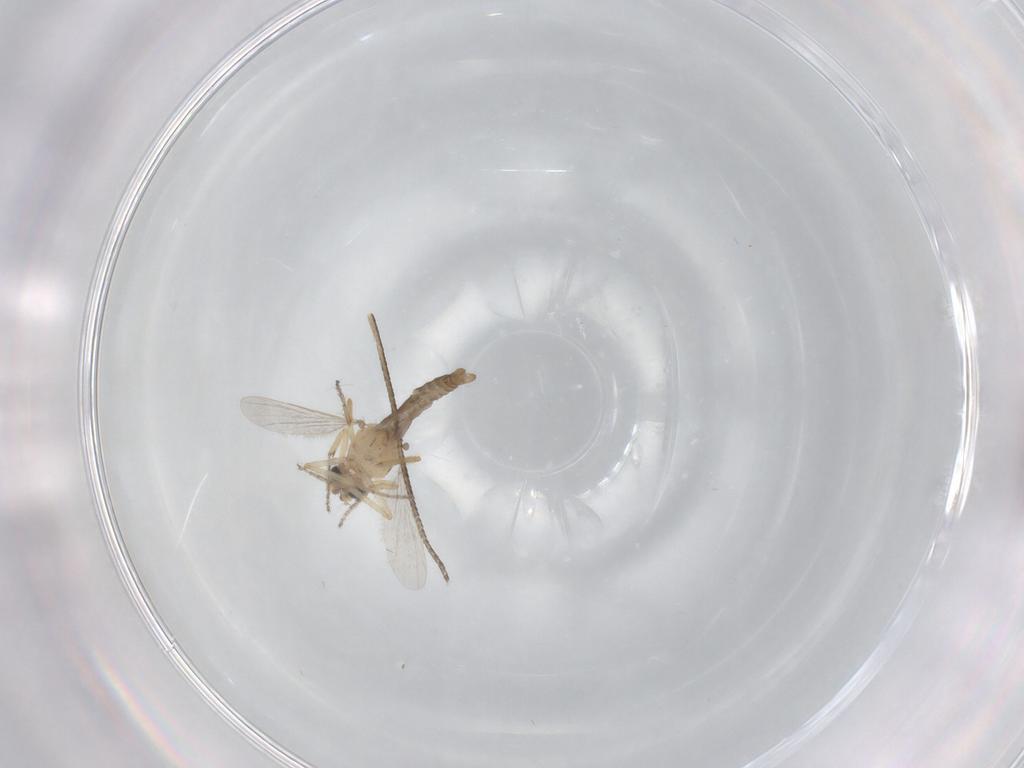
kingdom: Animalia
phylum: Arthropoda
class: Insecta
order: Diptera
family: Ceratopogonidae
